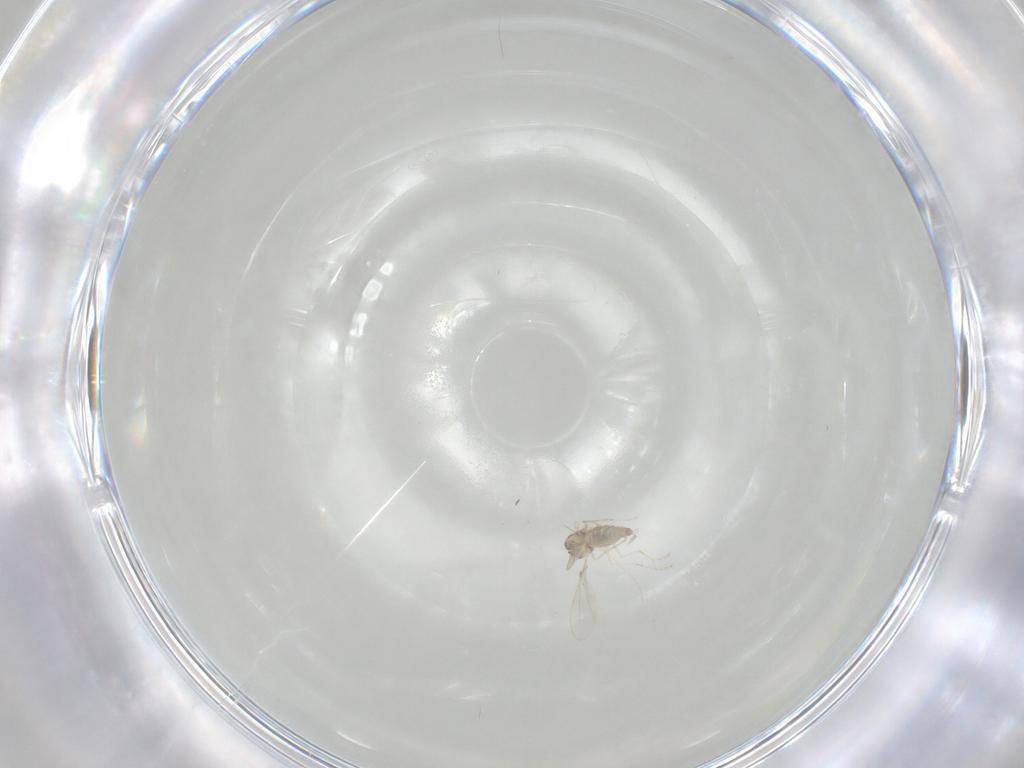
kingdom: Animalia
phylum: Arthropoda
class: Insecta
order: Diptera
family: Cecidomyiidae
